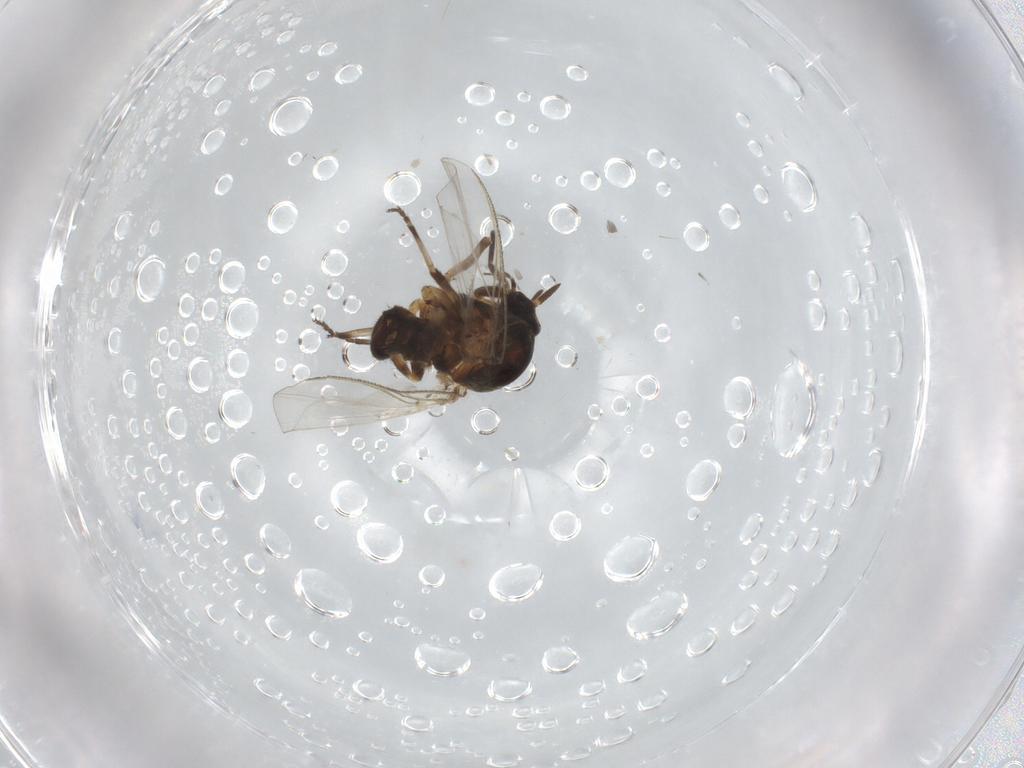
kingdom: Animalia
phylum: Arthropoda
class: Insecta
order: Diptera
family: Simuliidae
